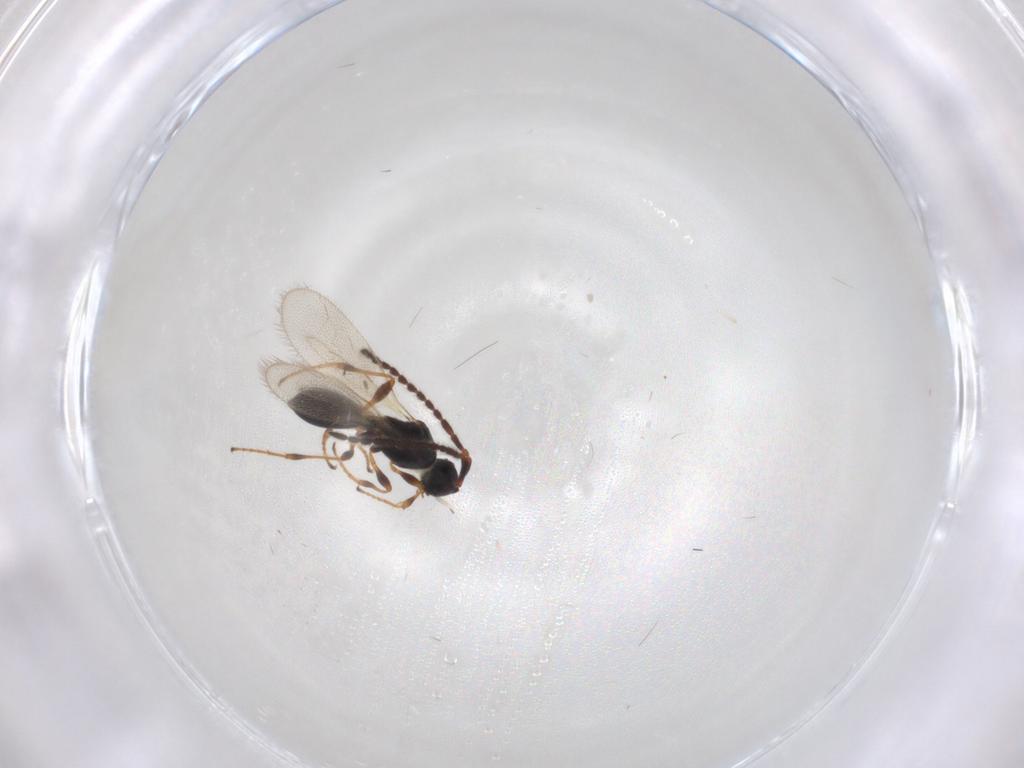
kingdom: Animalia
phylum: Arthropoda
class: Insecta
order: Hymenoptera
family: Diapriidae
